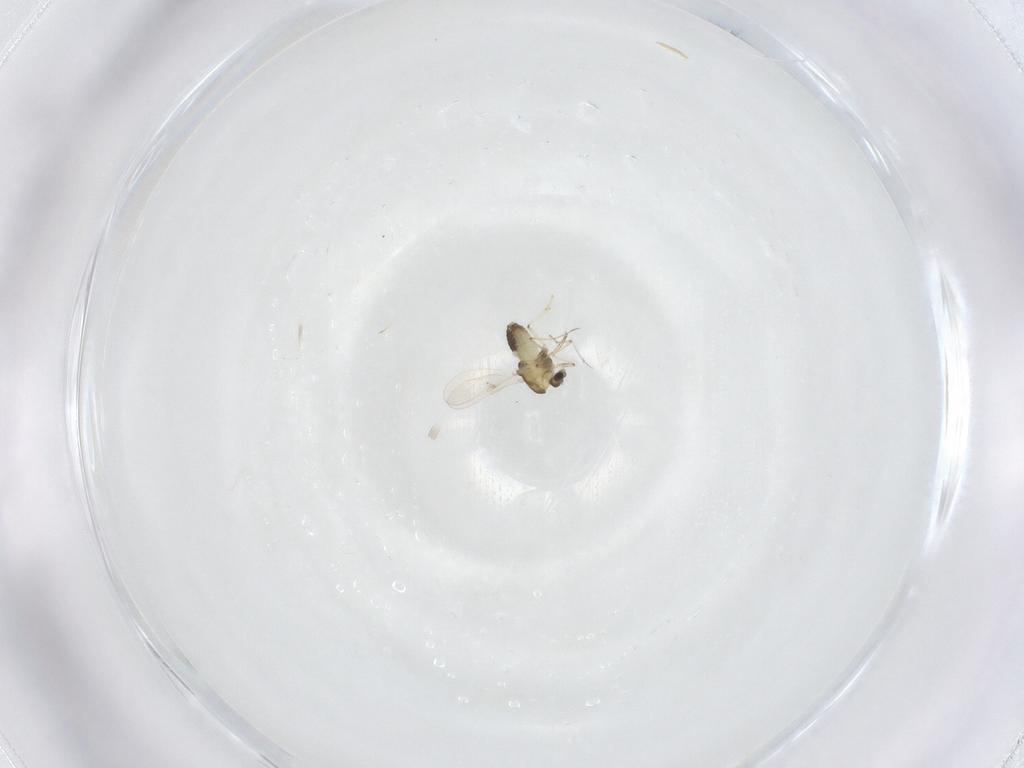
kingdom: Animalia
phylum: Arthropoda
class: Insecta
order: Diptera
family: Chironomidae
